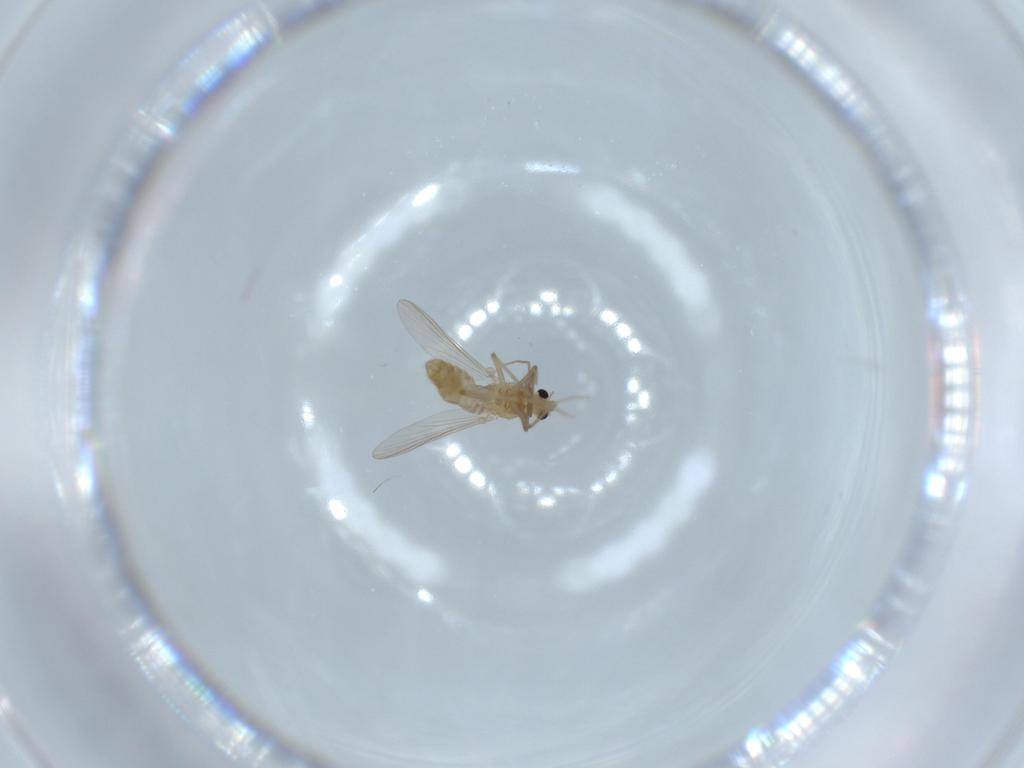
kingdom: Animalia
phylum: Arthropoda
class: Insecta
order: Diptera
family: Chironomidae
